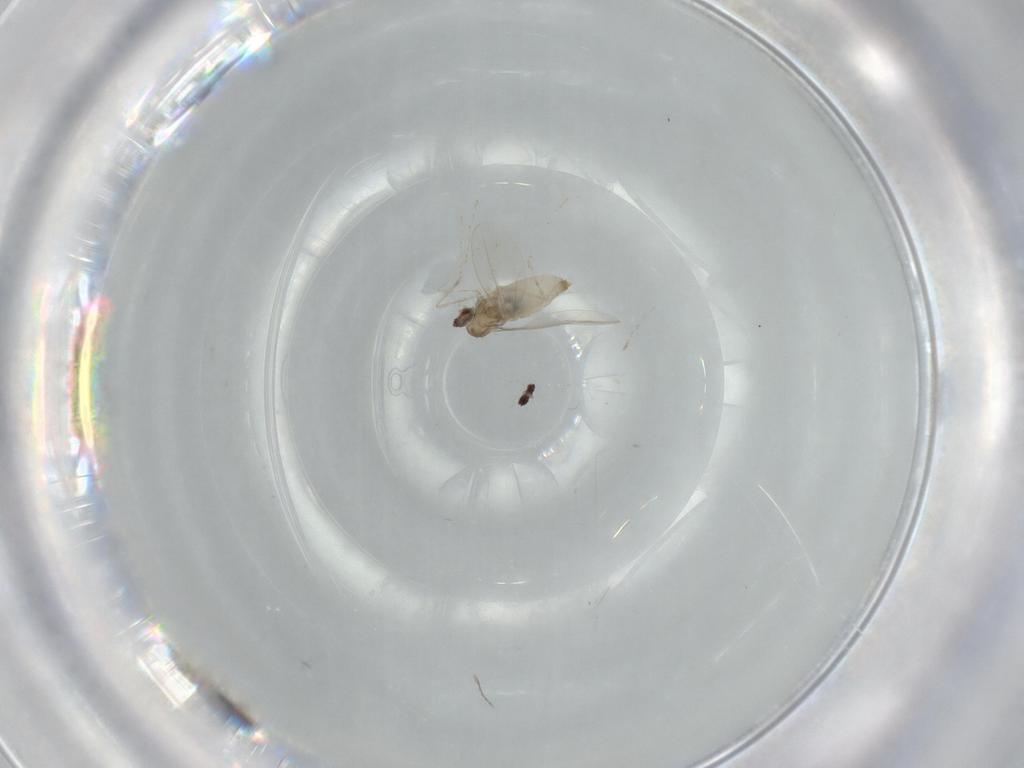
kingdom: Animalia
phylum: Arthropoda
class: Insecta
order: Diptera
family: Cecidomyiidae
